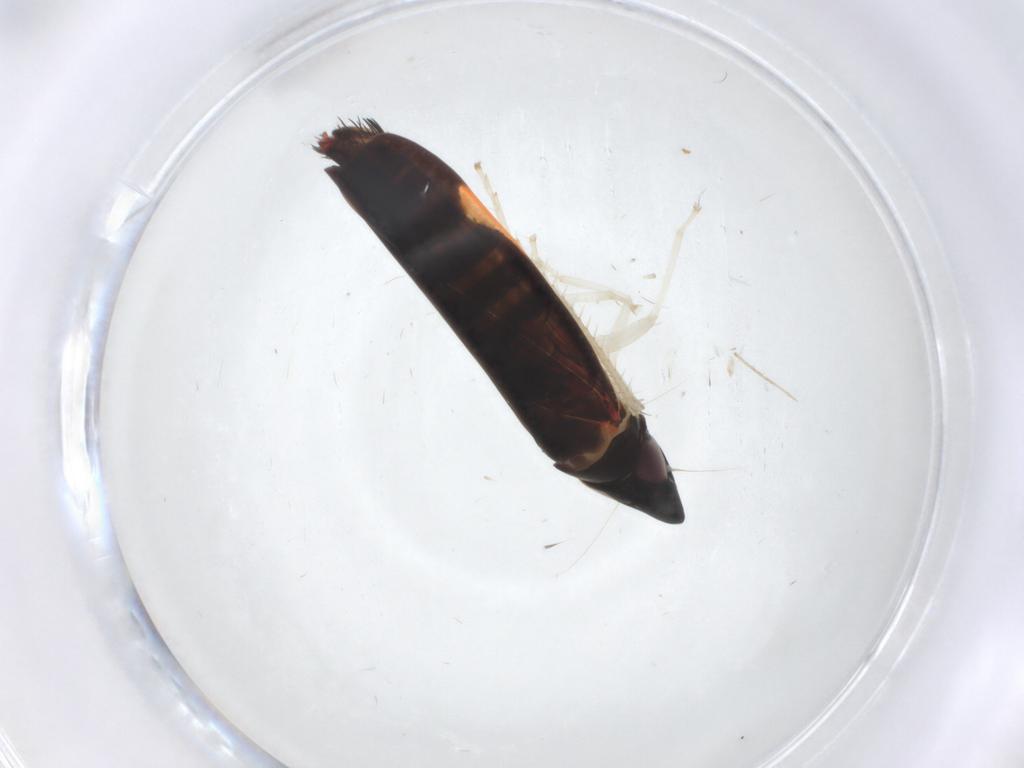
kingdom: Animalia
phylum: Arthropoda
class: Insecta
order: Hemiptera
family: Cicadellidae
